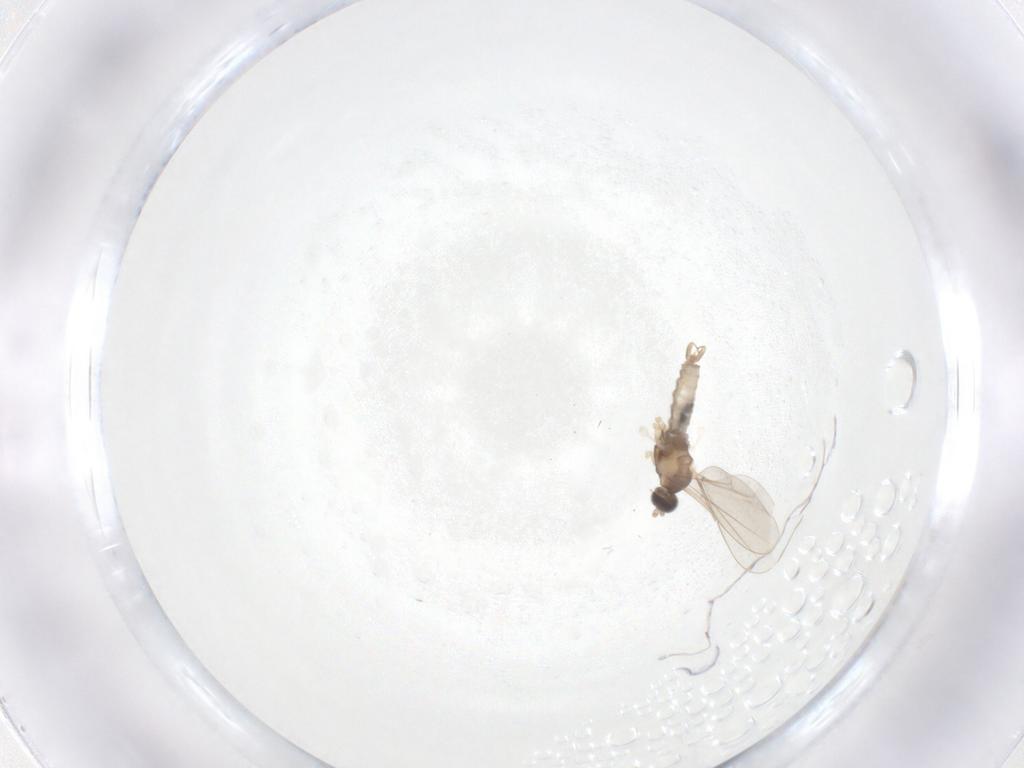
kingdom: Animalia
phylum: Arthropoda
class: Insecta
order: Diptera
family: Cecidomyiidae
